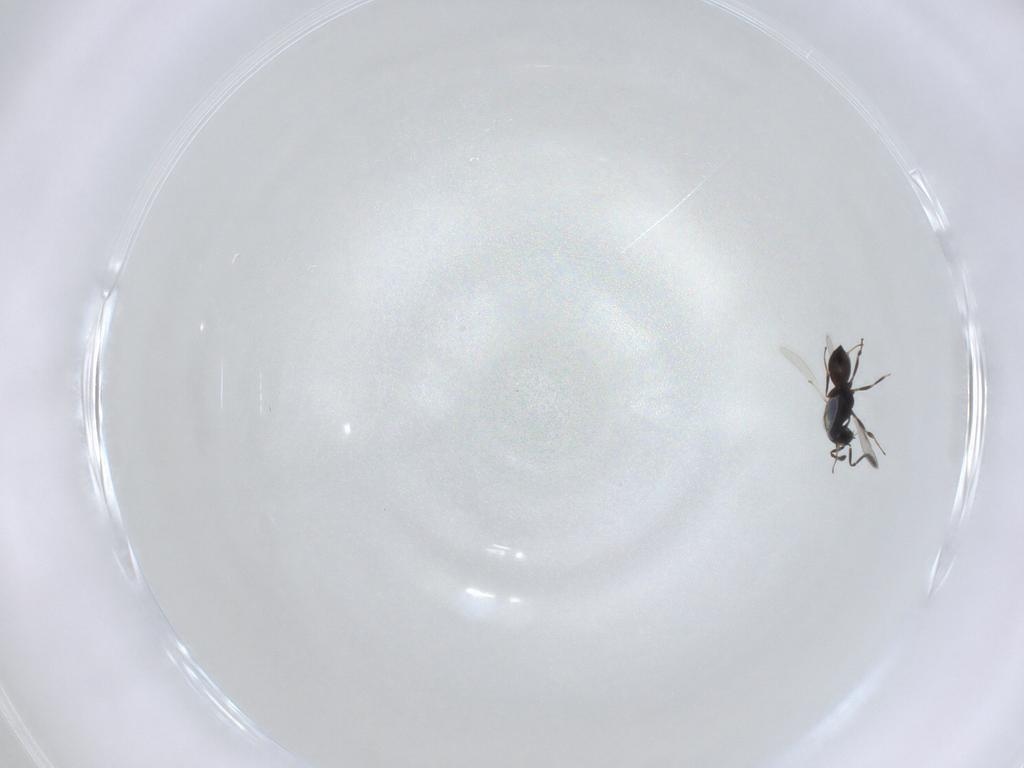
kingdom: Animalia
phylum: Arthropoda
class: Insecta
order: Hymenoptera
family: Scelionidae
